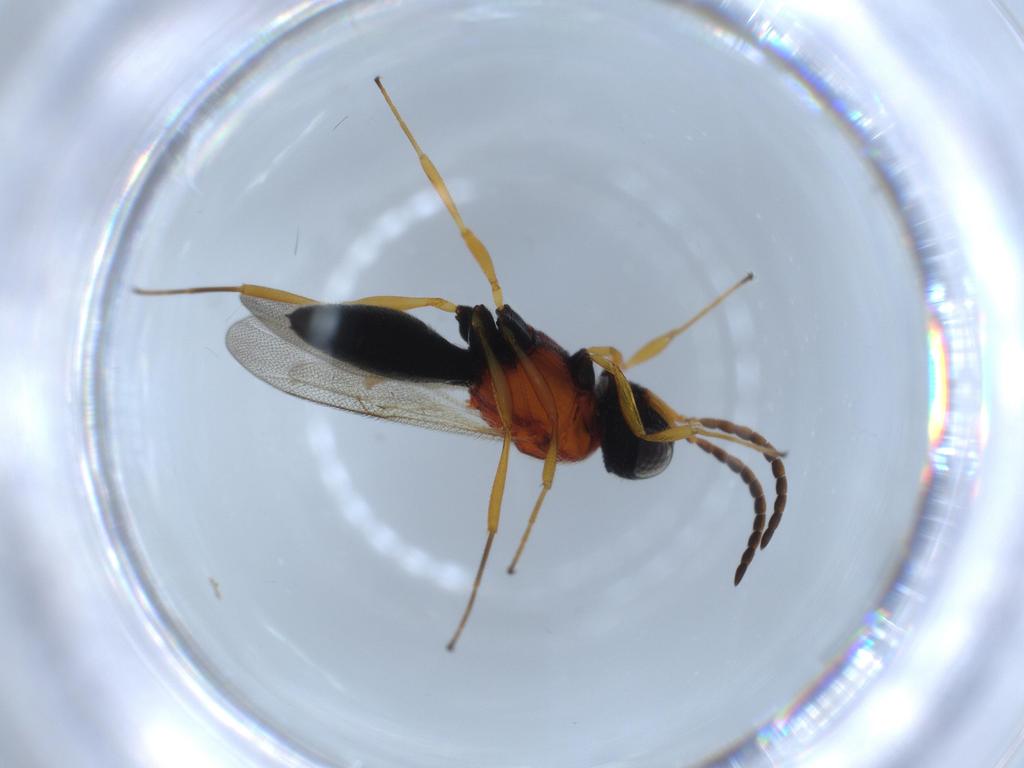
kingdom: Animalia
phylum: Arthropoda
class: Insecta
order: Hymenoptera
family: Scelionidae
